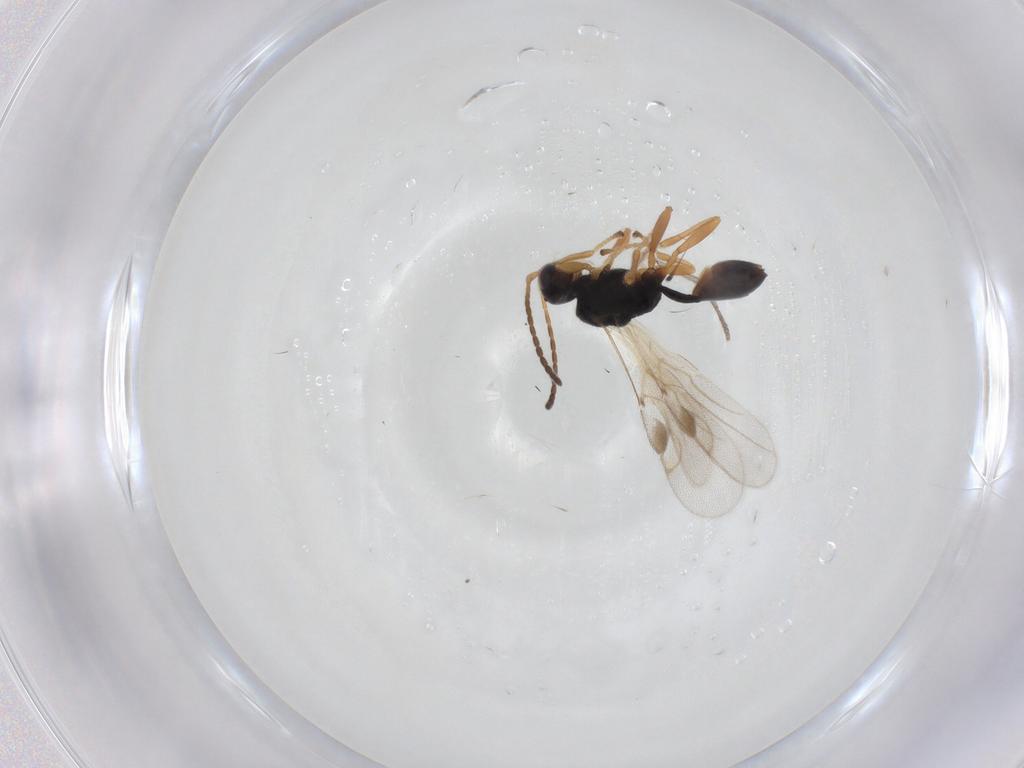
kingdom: Animalia
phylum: Arthropoda
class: Insecta
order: Hymenoptera
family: Braconidae
